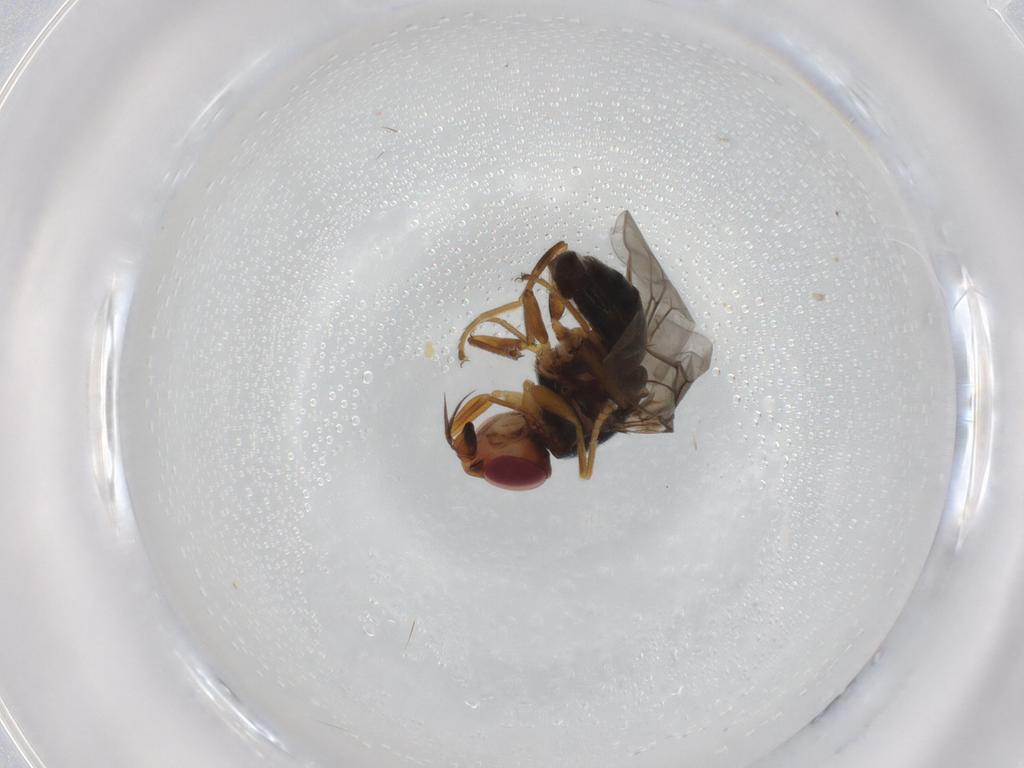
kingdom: Animalia
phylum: Arthropoda
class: Insecta
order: Diptera
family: Chloropidae
